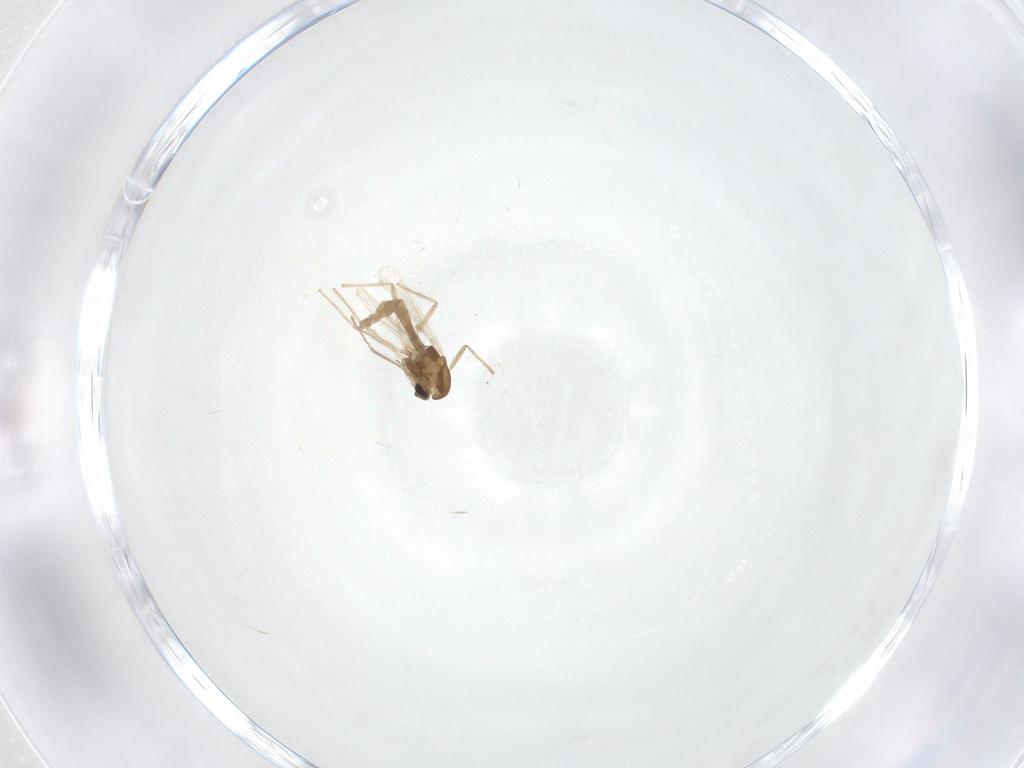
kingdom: Animalia
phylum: Arthropoda
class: Insecta
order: Diptera
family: Chironomidae
